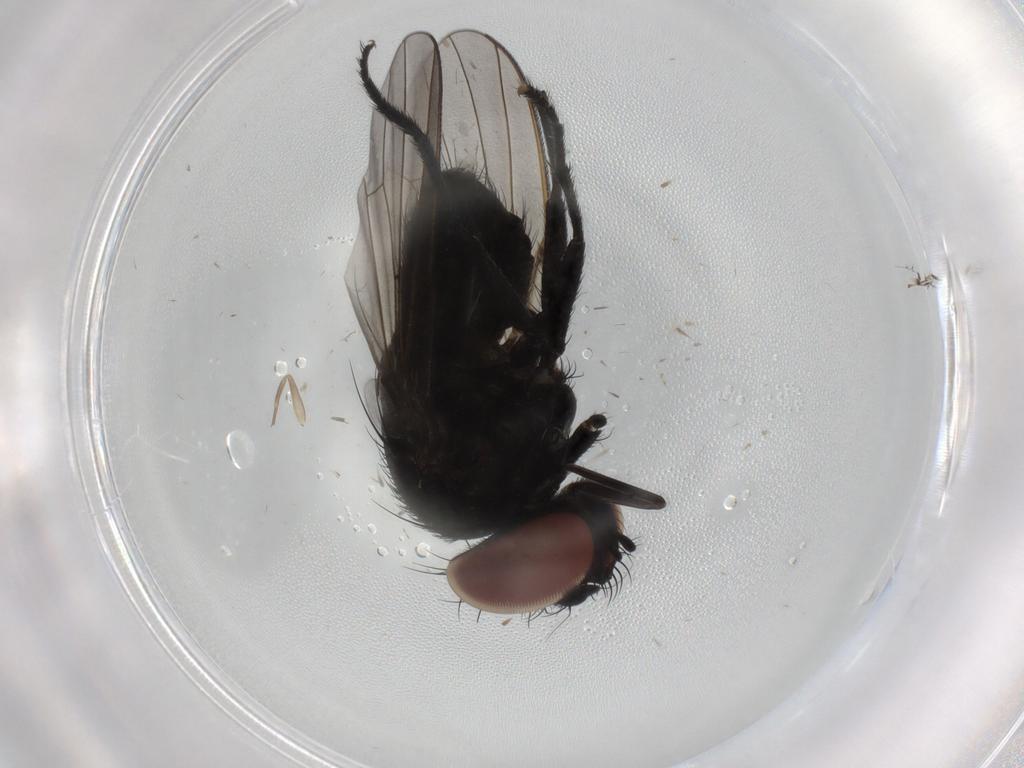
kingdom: Animalia
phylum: Arthropoda
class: Insecta
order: Diptera
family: Milichiidae
